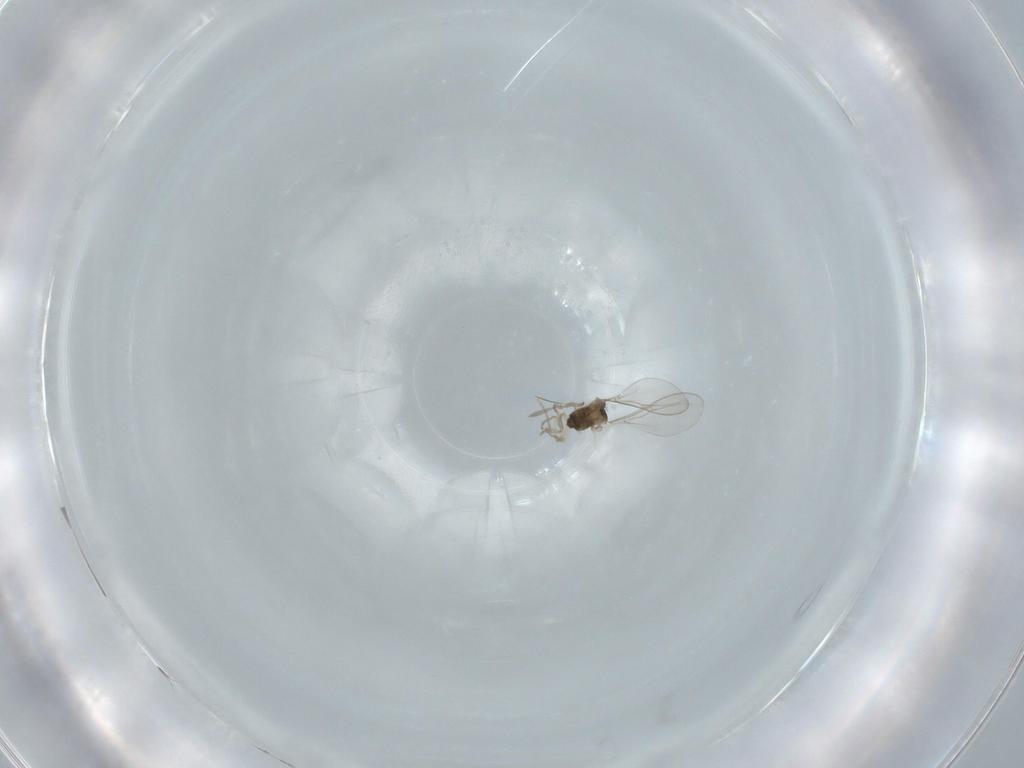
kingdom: Animalia
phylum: Arthropoda
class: Insecta
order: Diptera
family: Cecidomyiidae
